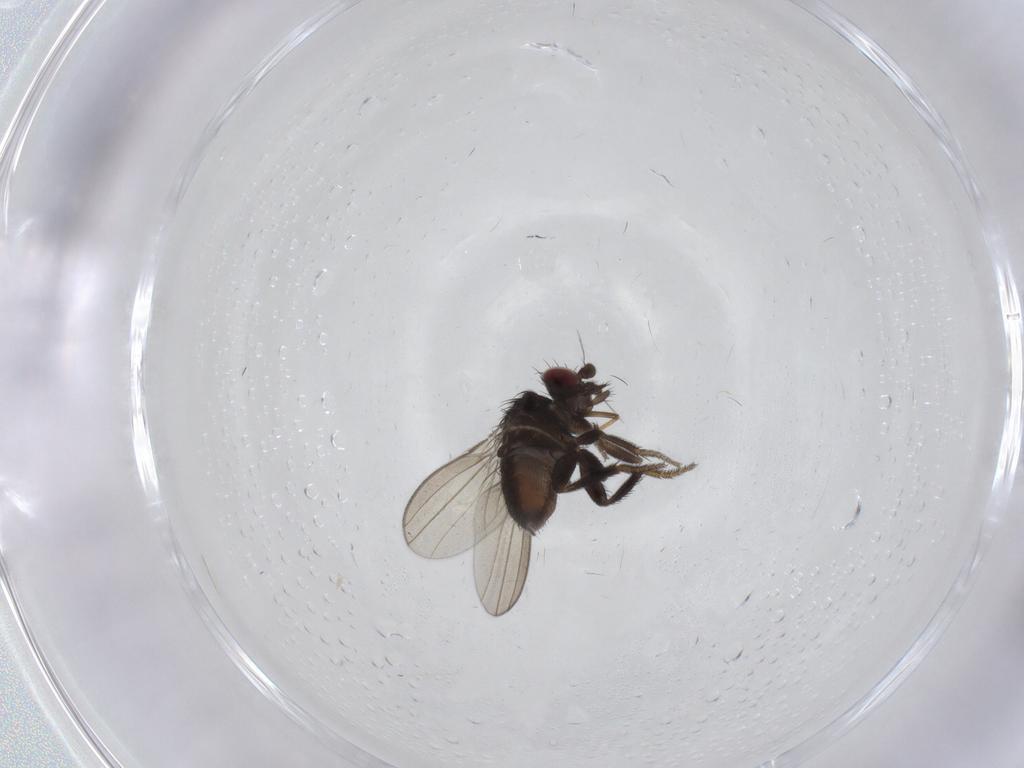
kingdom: Animalia
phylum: Arthropoda
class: Insecta
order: Diptera
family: Milichiidae
